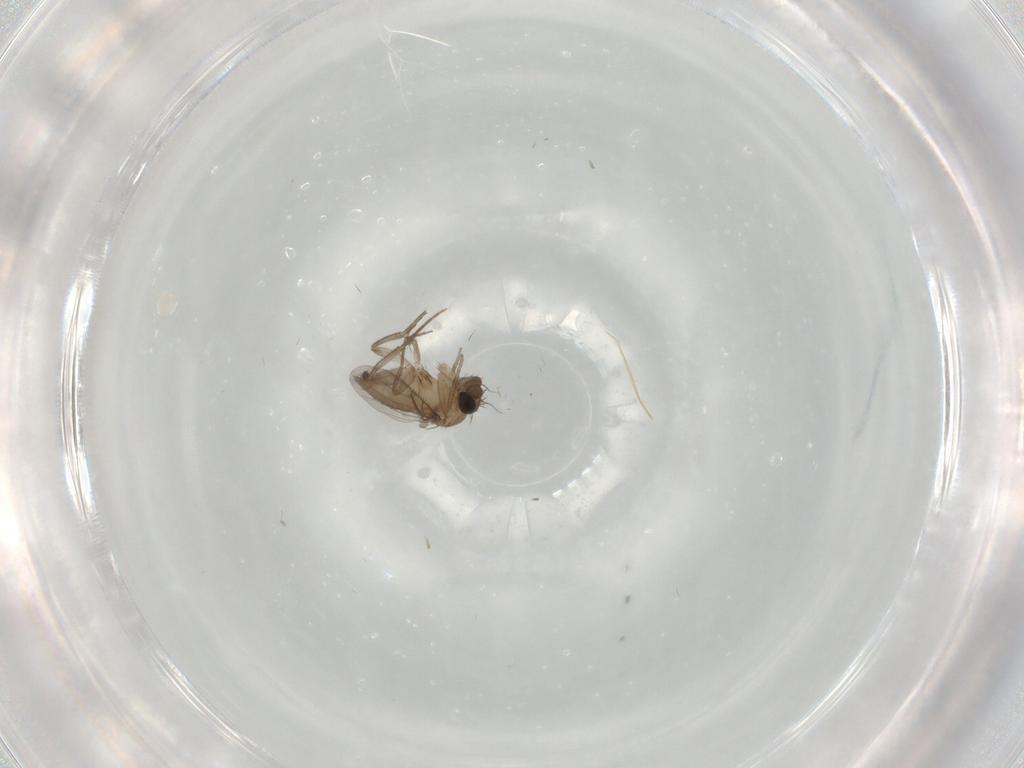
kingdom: Animalia
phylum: Arthropoda
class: Insecta
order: Diptera
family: Phoridae
